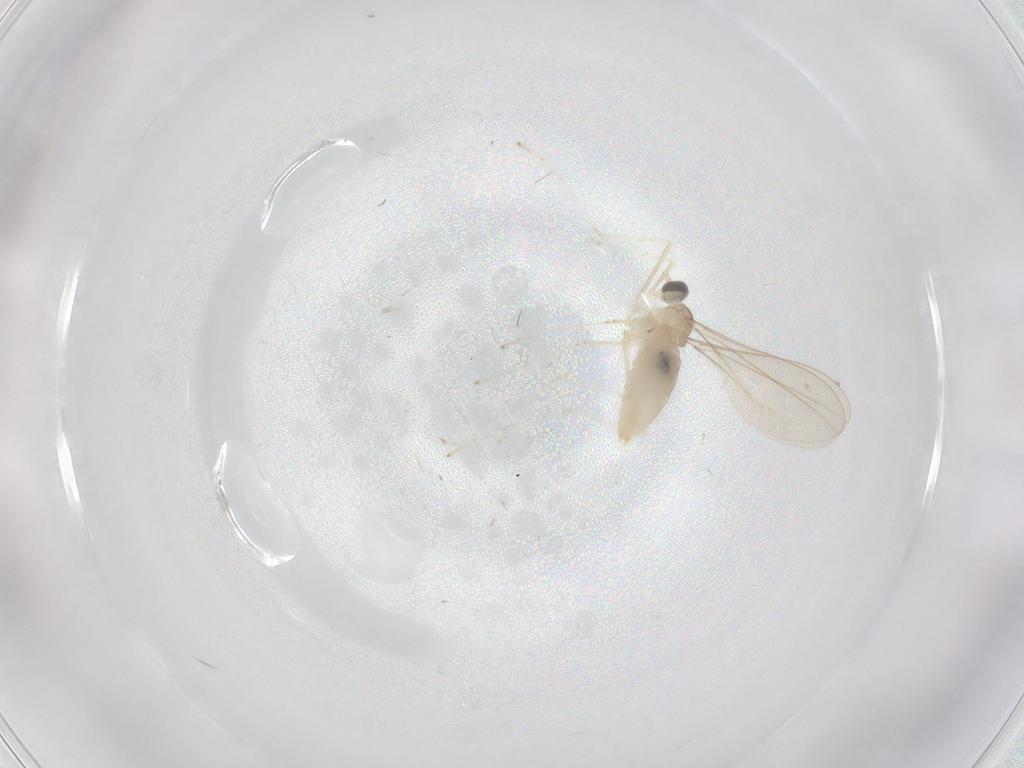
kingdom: Animalia
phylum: Arthropoda
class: Insecta
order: Diptera
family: Cecidomyiidae
